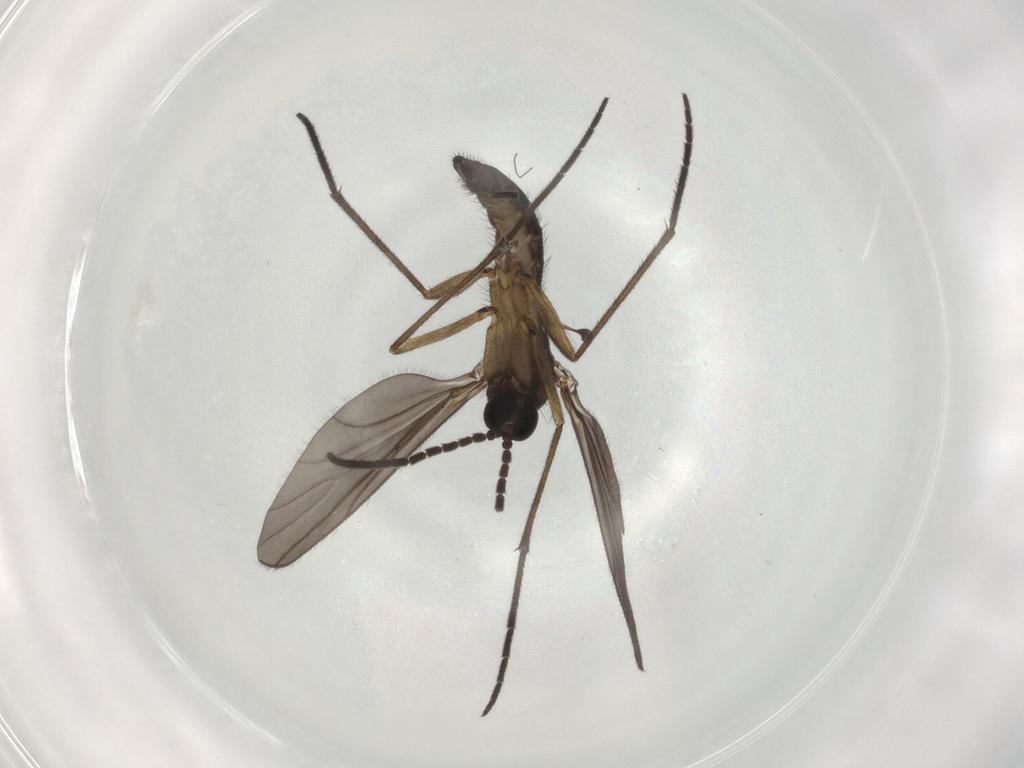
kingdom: Animalia
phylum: Arthropoda
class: Insecta
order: Diptera
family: Sciaridae
